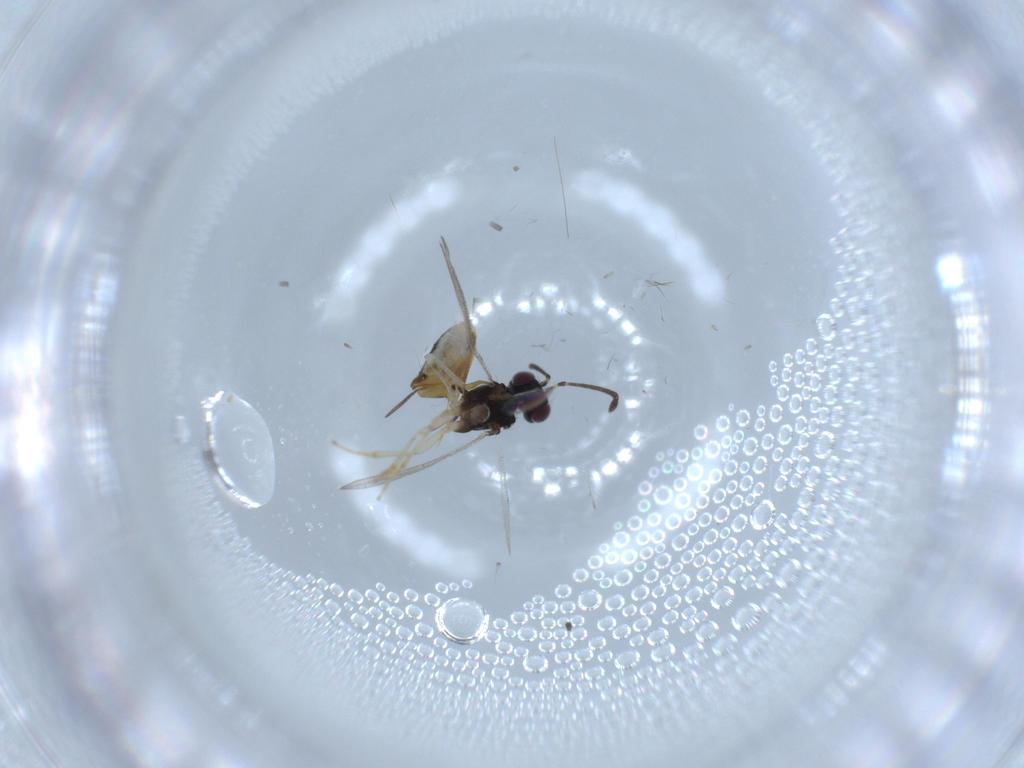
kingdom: Animalia
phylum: Arthropoda
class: Insecta
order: Hymenoptera
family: Eupelmidae
